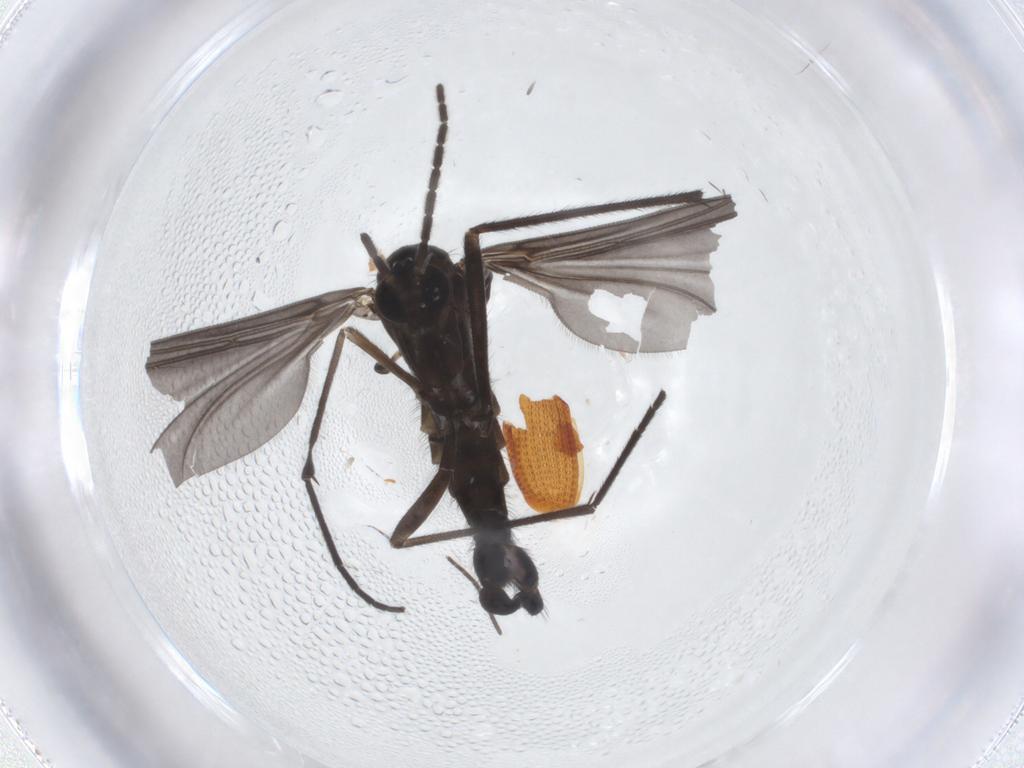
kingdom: Animalia
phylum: Arthropoda
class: Insecta
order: Diptera
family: Sciaridae
